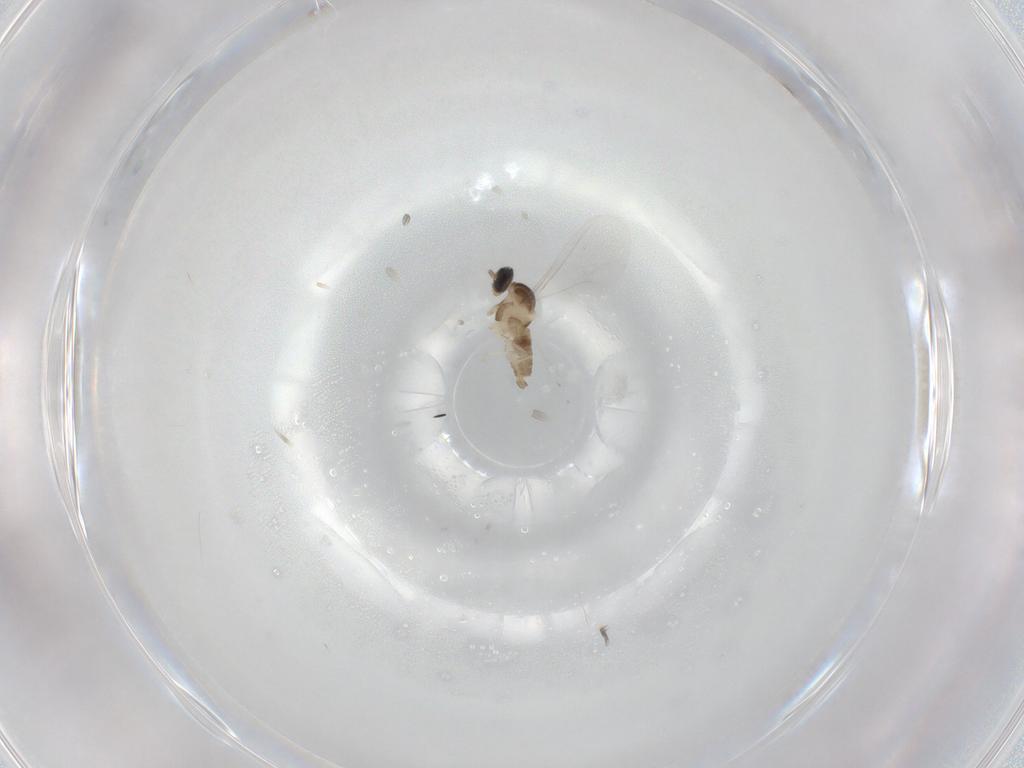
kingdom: Animalia
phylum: Arthropoda
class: Insecta
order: Diptera
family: Cecidomyiidae
